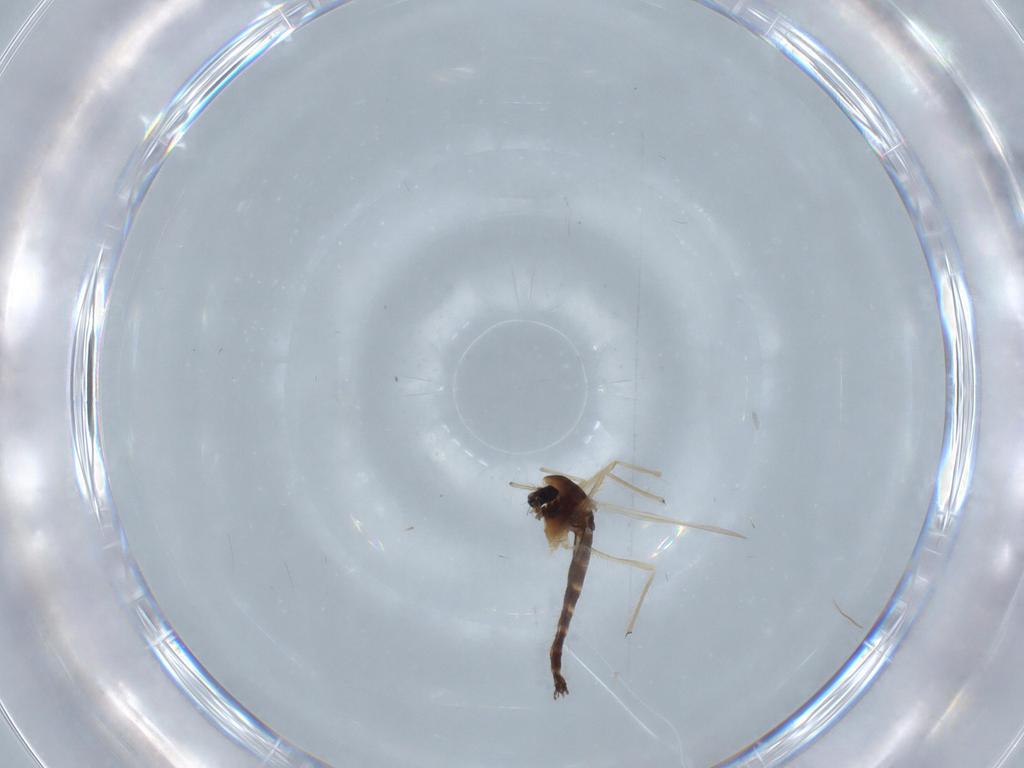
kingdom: Animalia
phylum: Arthropoda
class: Insecta
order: Diptera
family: Chironomidae
